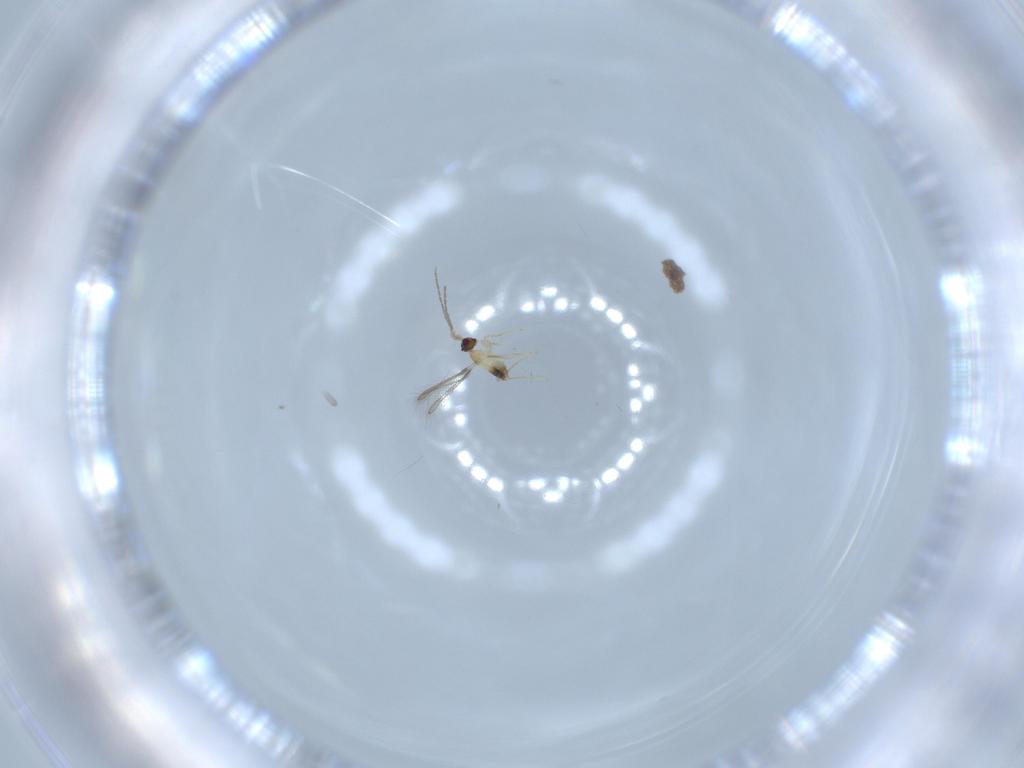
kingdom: Animalia
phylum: Arthropoda
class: Insecta
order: Hymenoptera
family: Mymaridae
